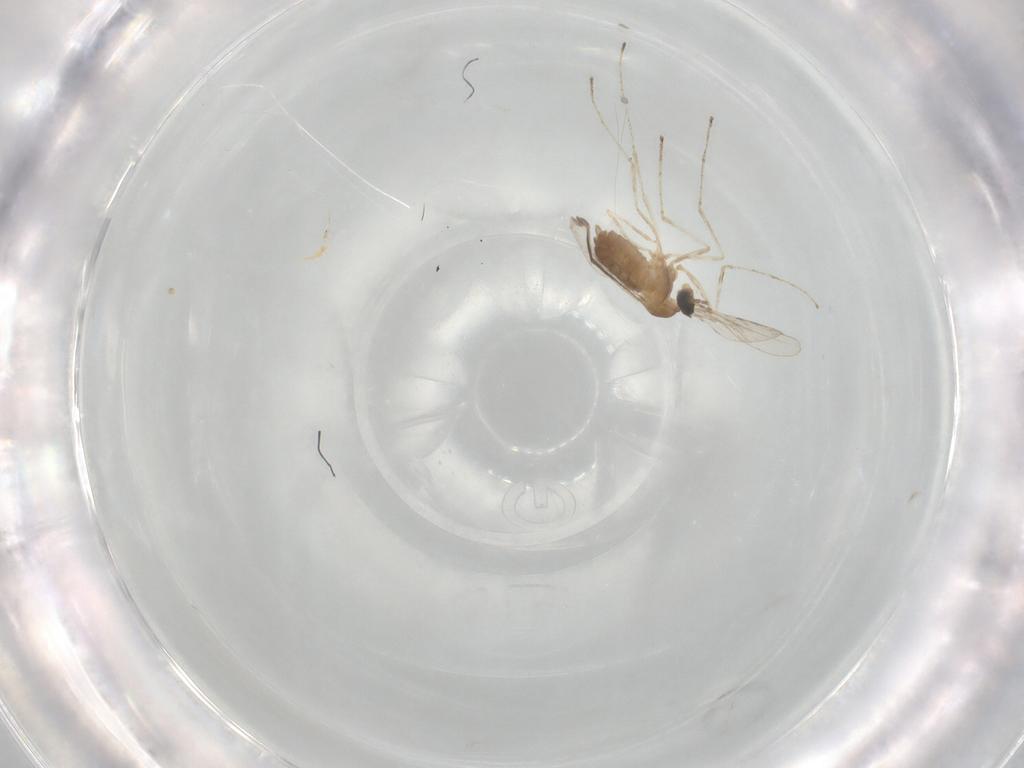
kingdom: Animalia
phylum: Arthropoda
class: Insecta
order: Diptera
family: Cecidomyiidae
